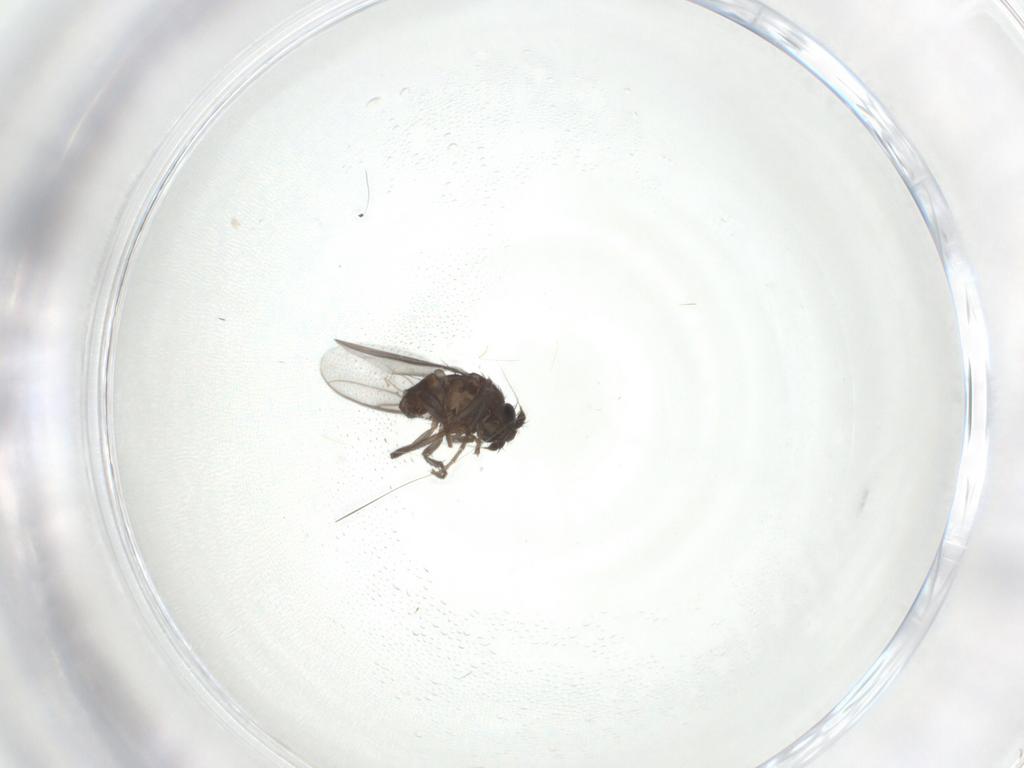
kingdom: Animalia
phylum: Arthropoda
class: Insecta
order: Diptera
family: Sphaeroceridae
